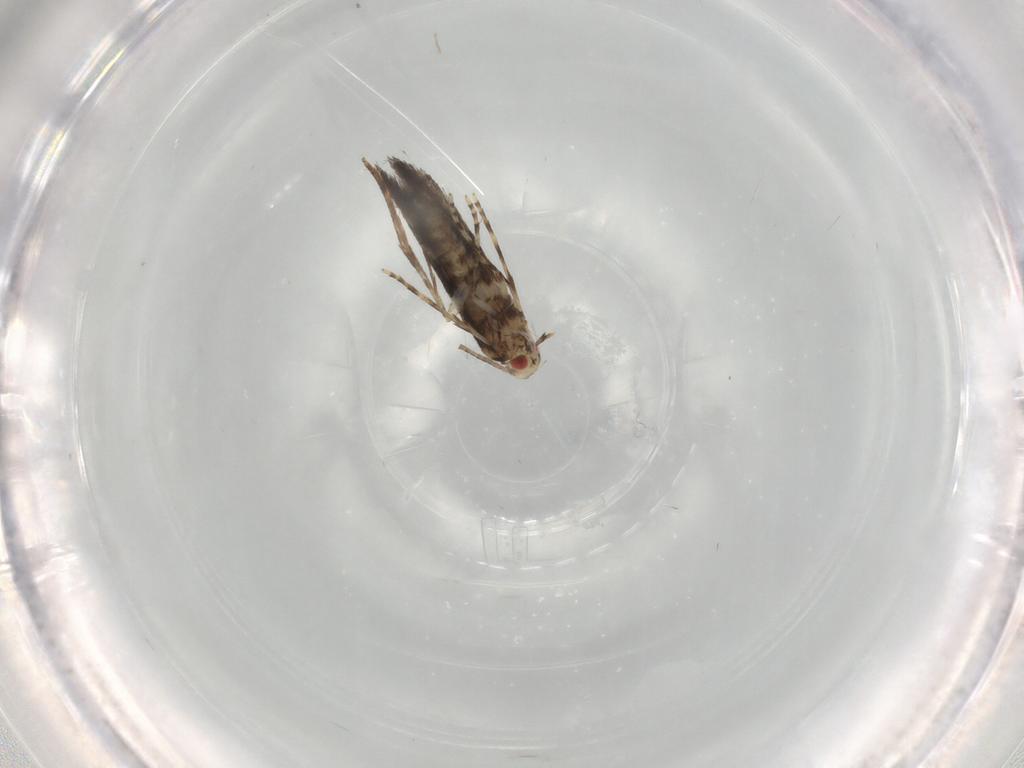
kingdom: Animalia
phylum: Arthropoda
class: Insecta
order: Lepidoptera
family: Gracillariidae
